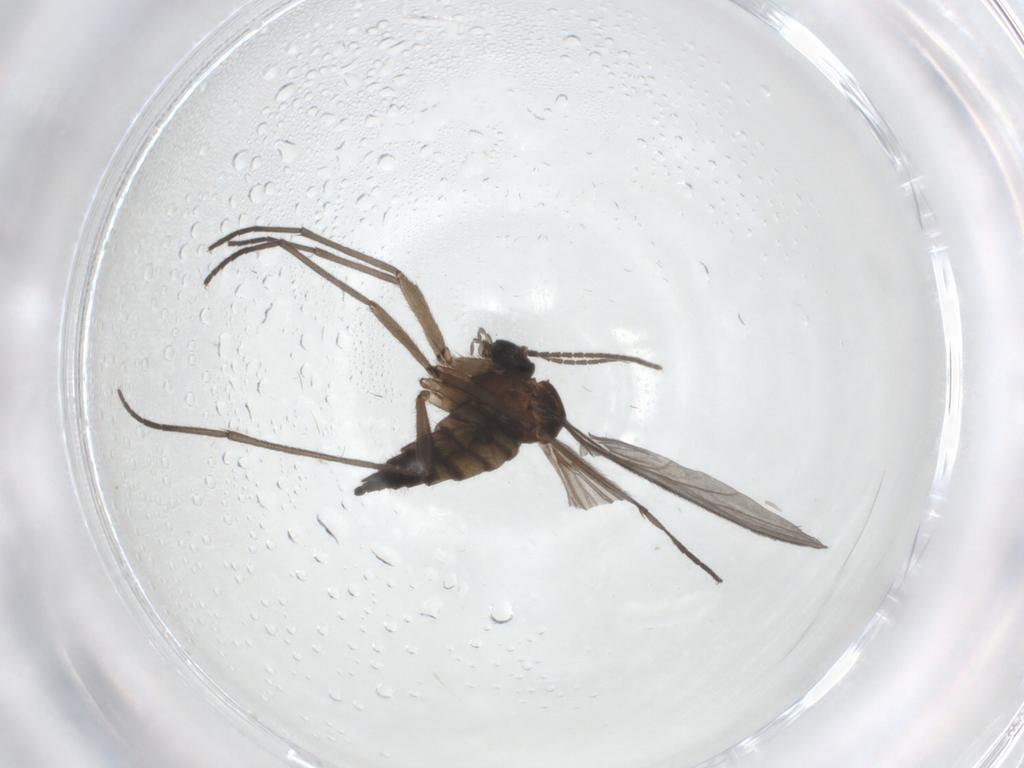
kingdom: Animalia
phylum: Arthropoda
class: Insecta
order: Diptera
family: Sciaridae
